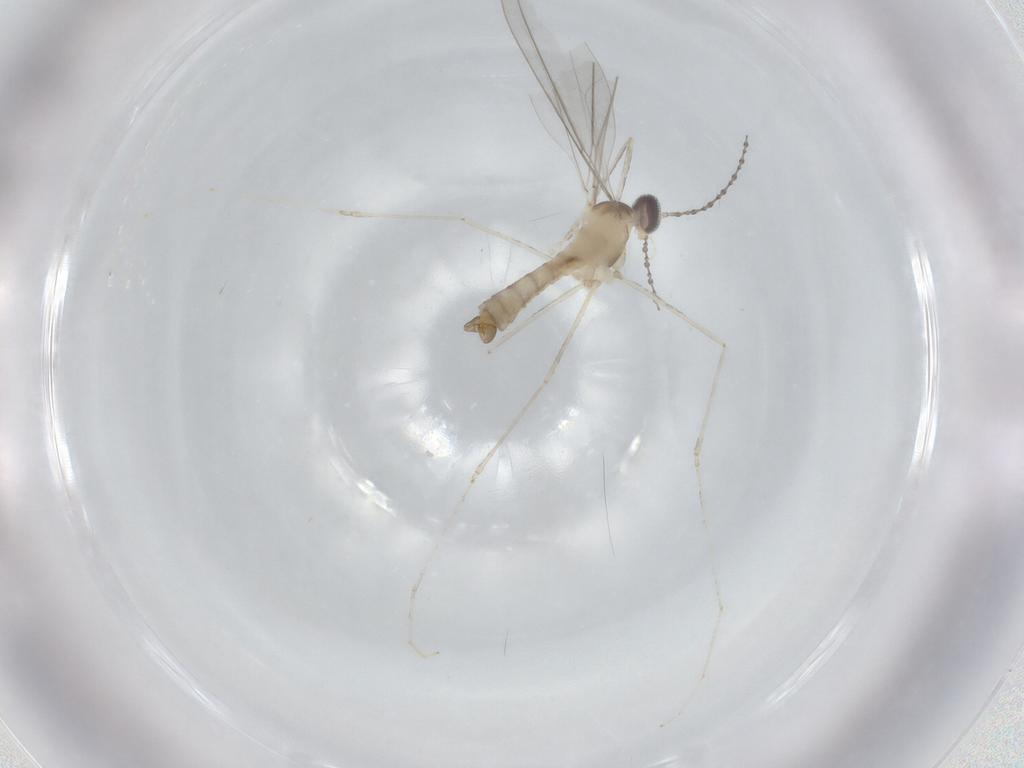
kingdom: Animalia
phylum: Arthropoda
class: Insecta
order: Diptera
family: Cecidomyiidae
